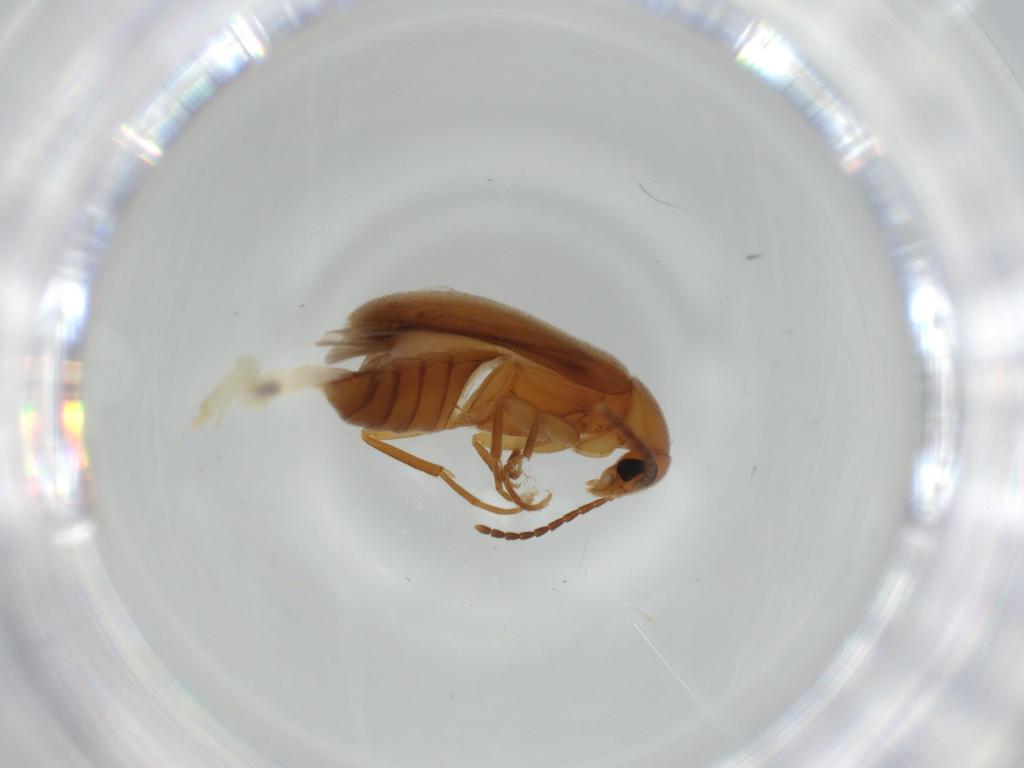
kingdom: Animalia
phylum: Arthropoda
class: Insecta
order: Coleoptera
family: Scraptiidae
